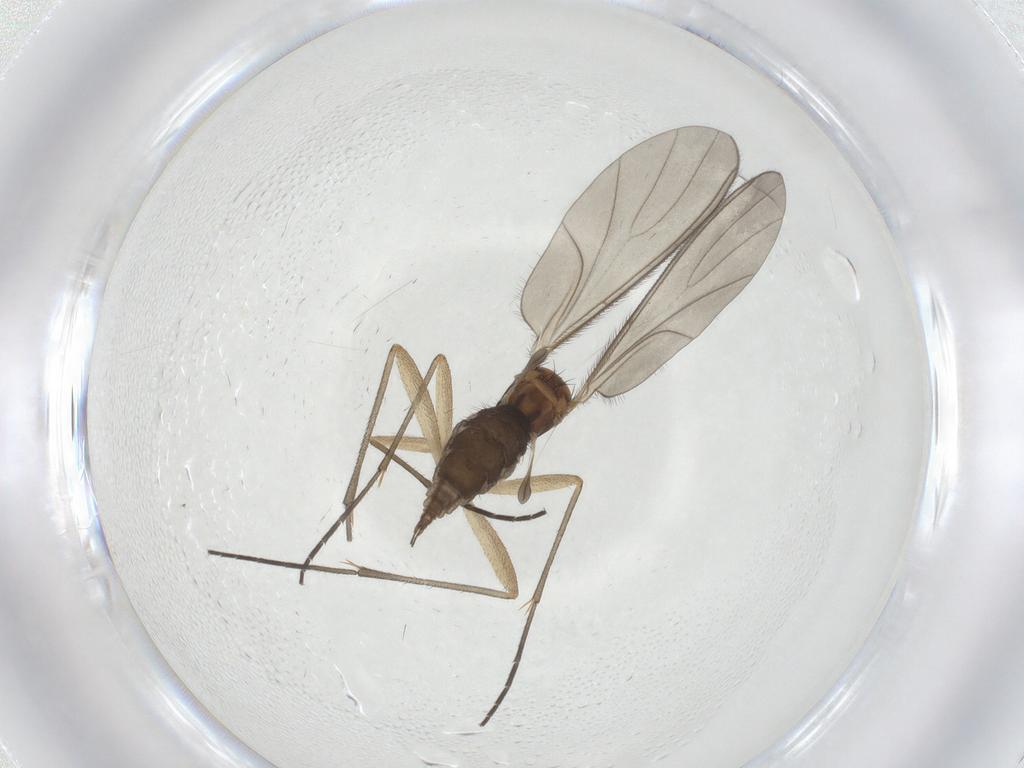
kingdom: Animalia
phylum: Arthropoda
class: Insecta
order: Diptera
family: Sciaridae
